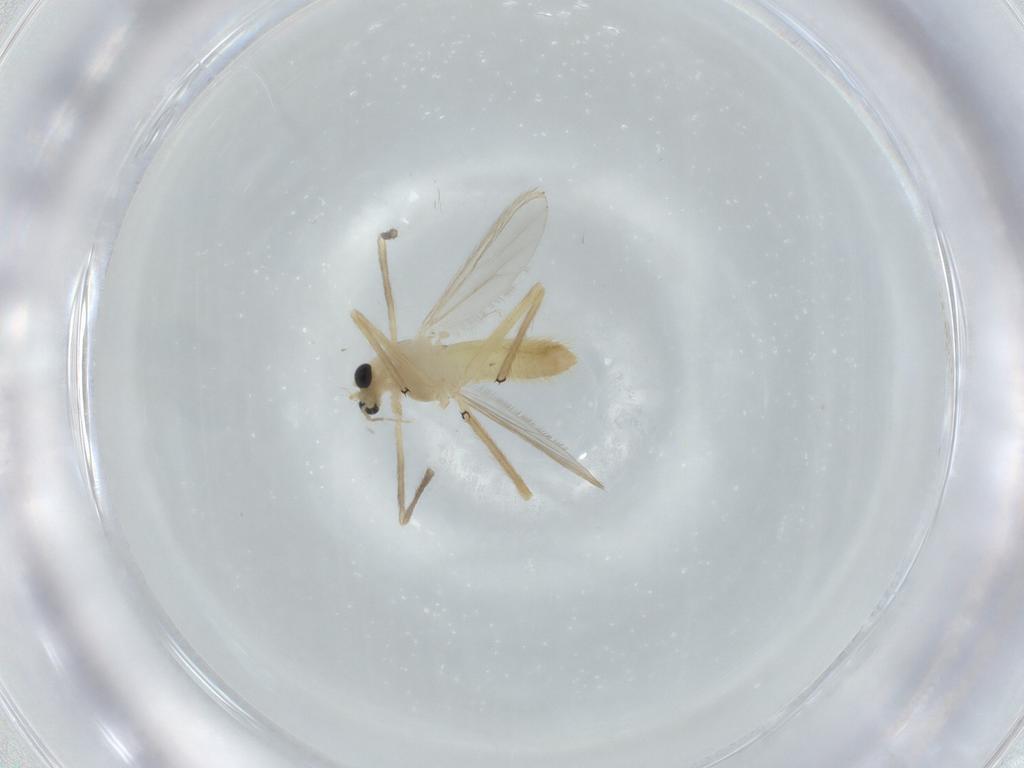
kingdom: Animalia
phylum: Arthropoda
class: Insecta
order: Diptera
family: Chironomidae
